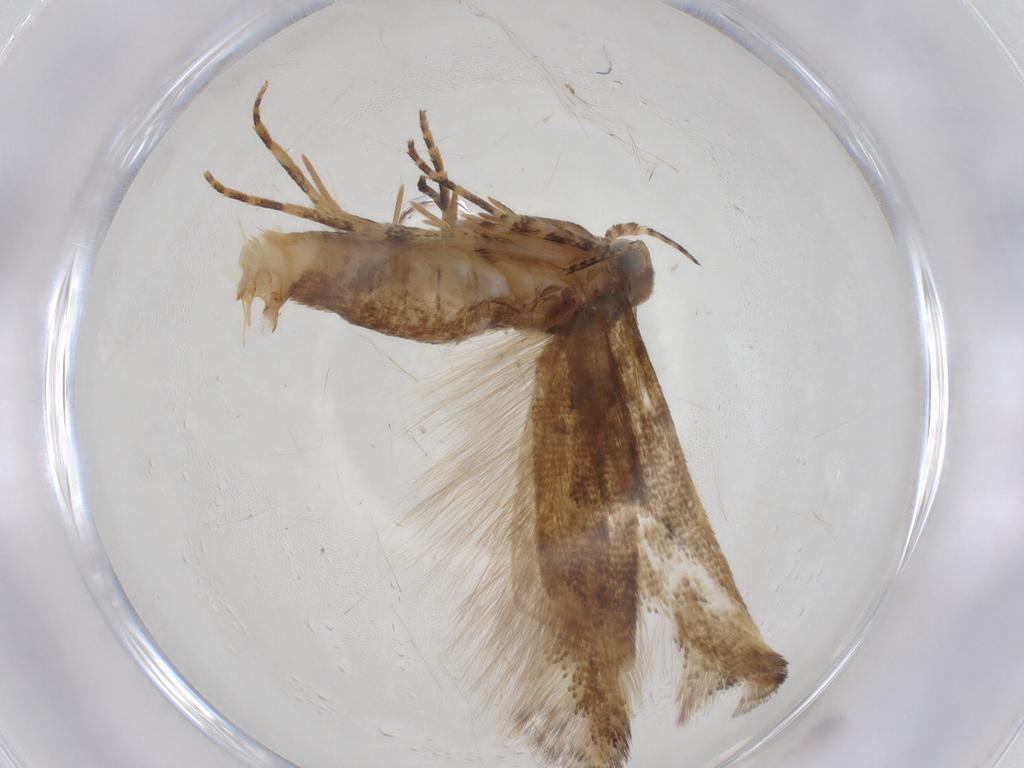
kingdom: Animalia
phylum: Arthropoda
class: Insecta
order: Lepidoptera
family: Gelechiidae
